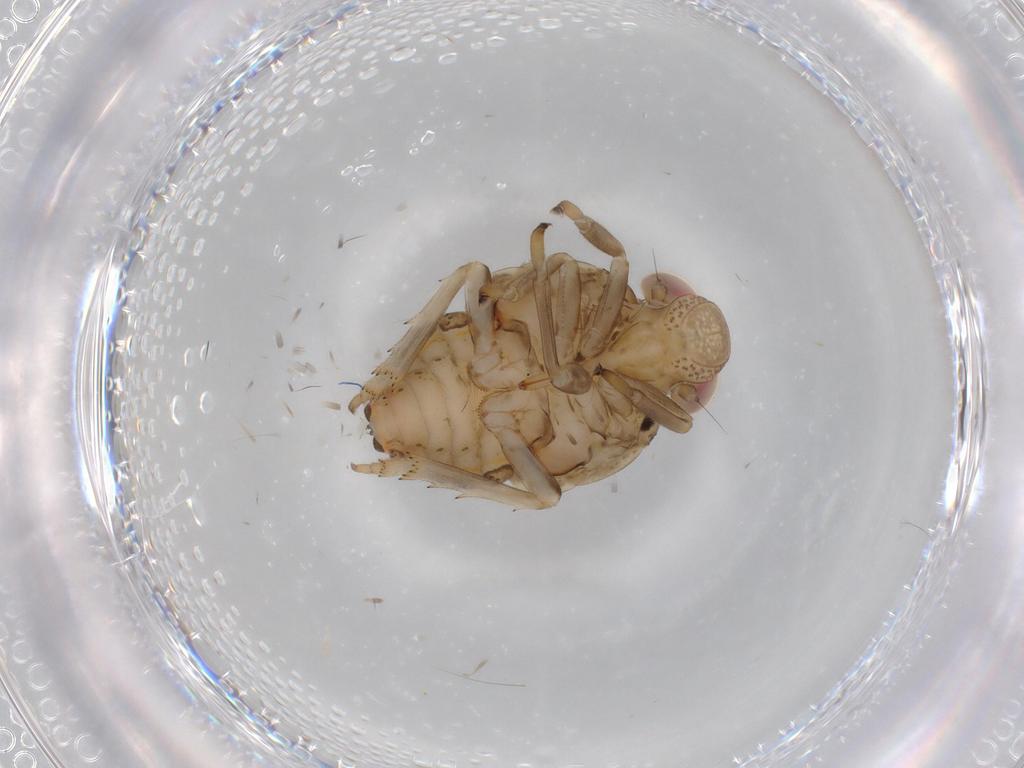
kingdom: Animalia
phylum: Arthropoda
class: Insecta
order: Hemiptera
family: Issidae
